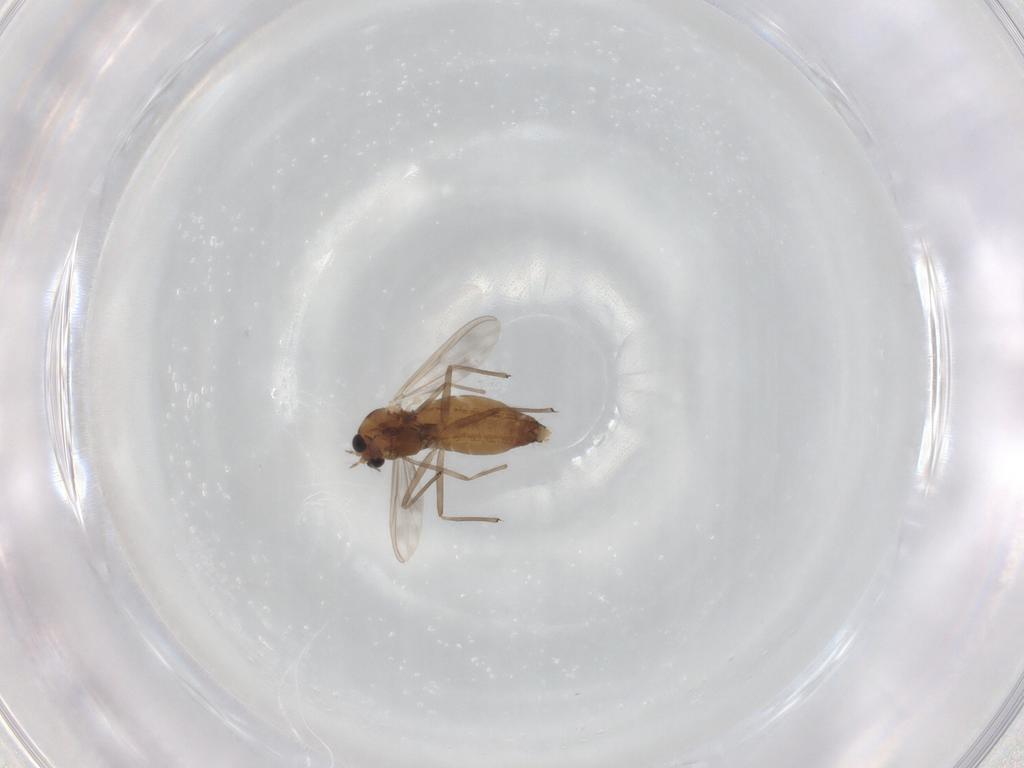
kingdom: Animalia
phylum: Arthropoda
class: Insecta
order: Diptera
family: Chironomidae
